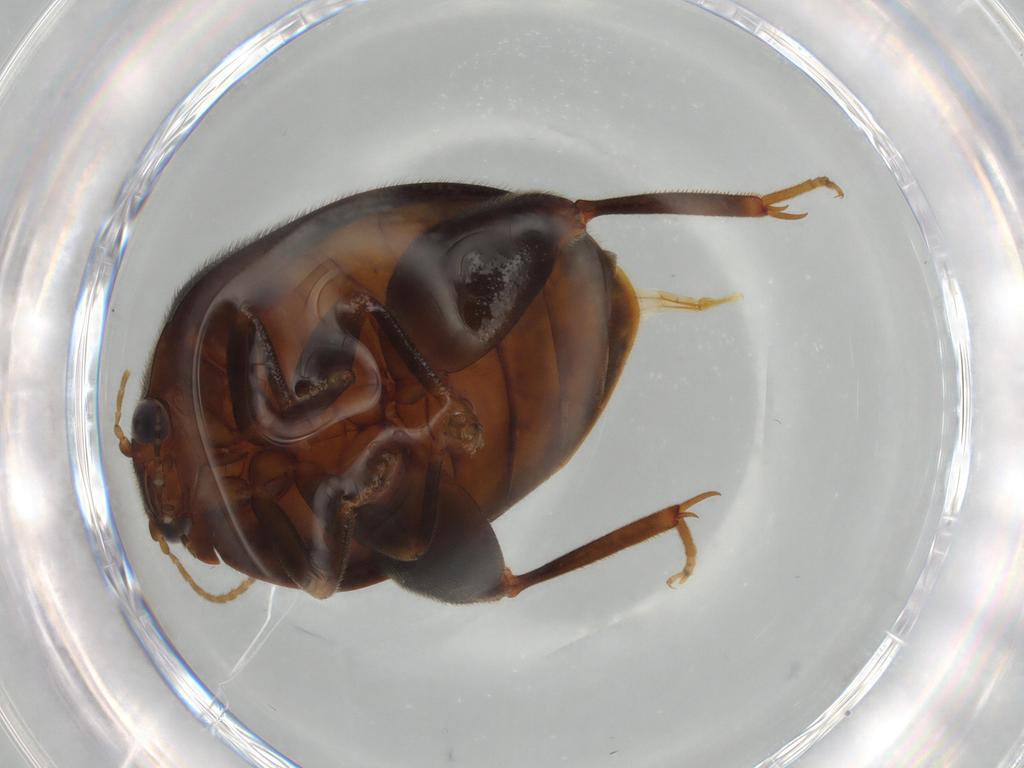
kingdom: Animalia
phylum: Arthropoda
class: Insecta
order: Coleoptera
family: Scirtidae
